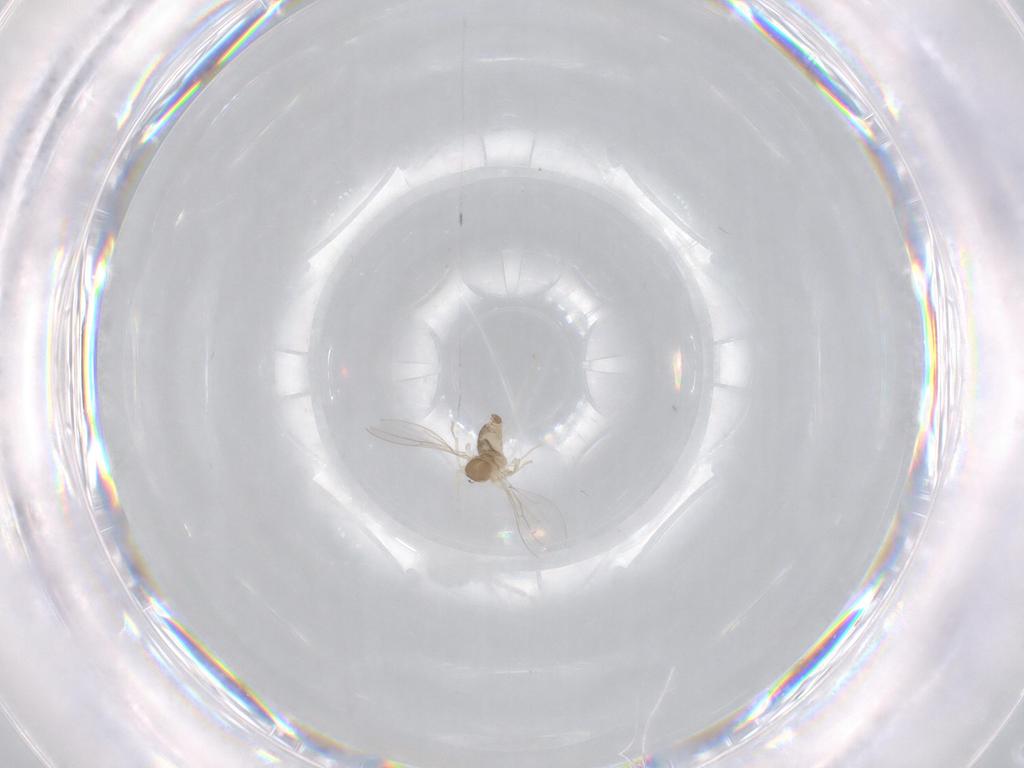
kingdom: Animalia
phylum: Arthropoda
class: Insecta
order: Diptera
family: Cecidomyiidae
